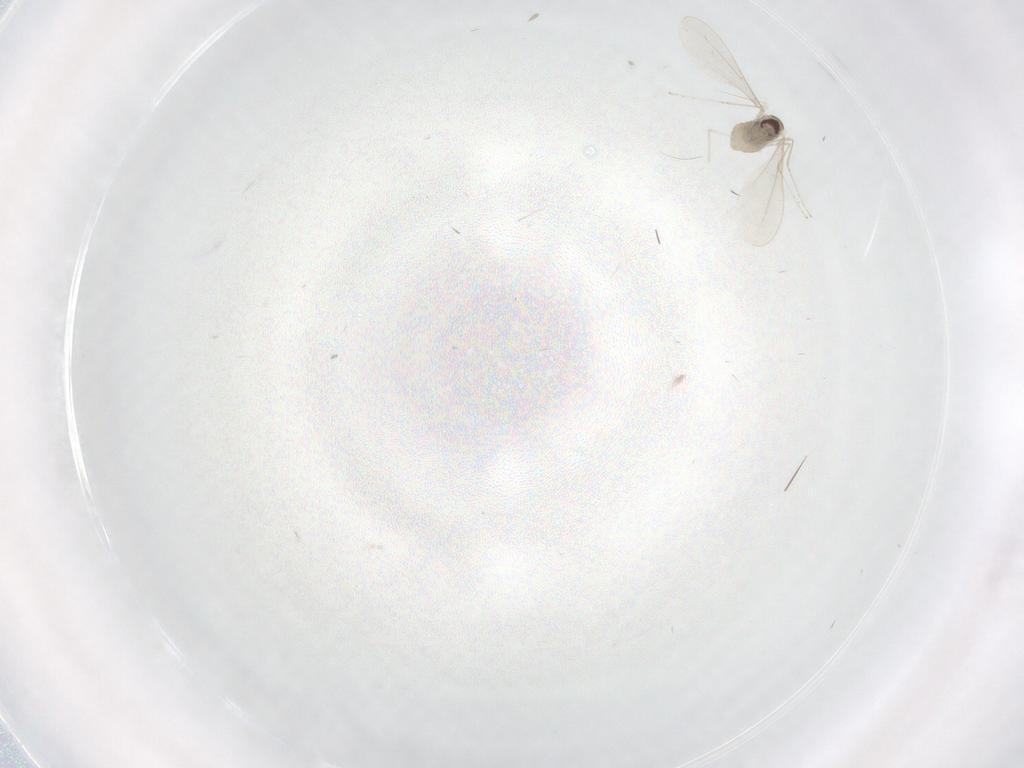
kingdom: Animalia
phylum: Arthropoda
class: Insecta
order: Diptera
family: Cecidomyiidae
